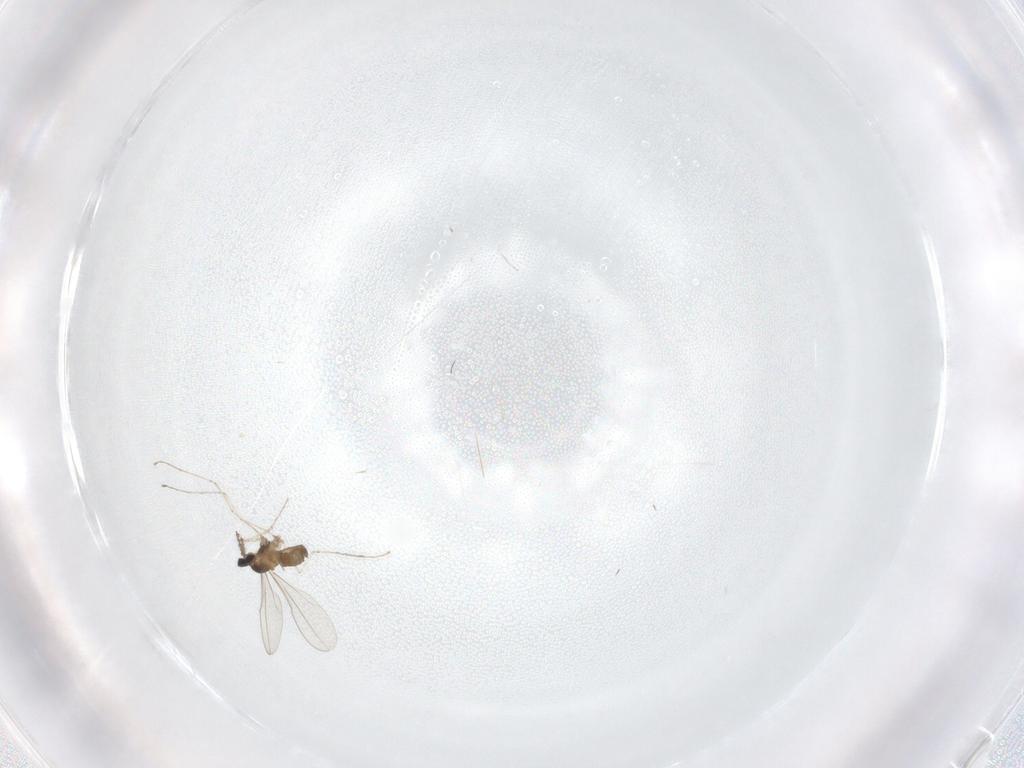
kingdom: Animalia
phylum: Arthropoda
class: Insecta
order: Diptera
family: Cecidomyiidae
